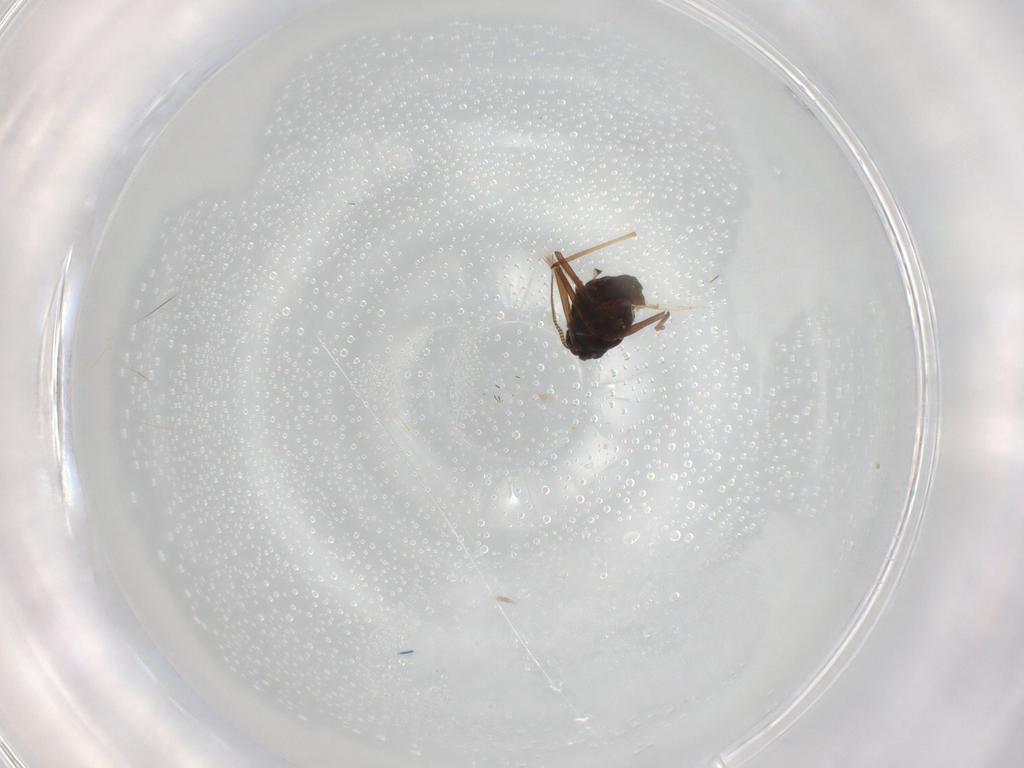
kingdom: Animalia
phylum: Arthropoda
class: Insecta
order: Diptera
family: Chironomidae
